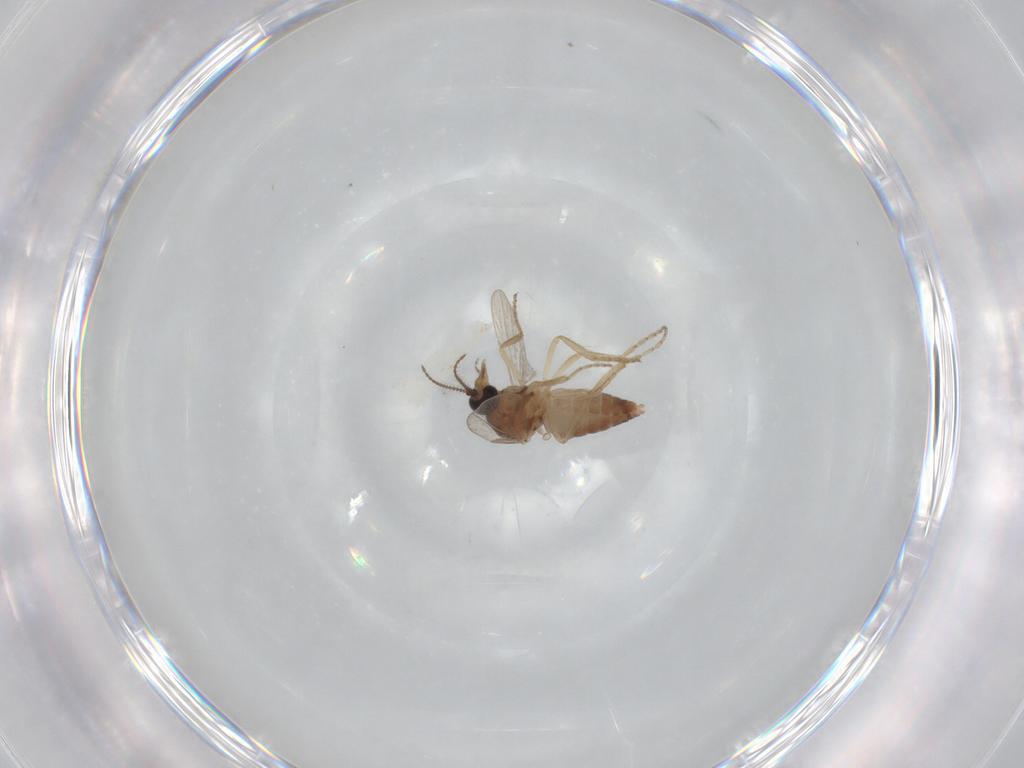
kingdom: Animalia
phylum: Arthropoda
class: Insecta
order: Diptera
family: Ceratopogonidae
